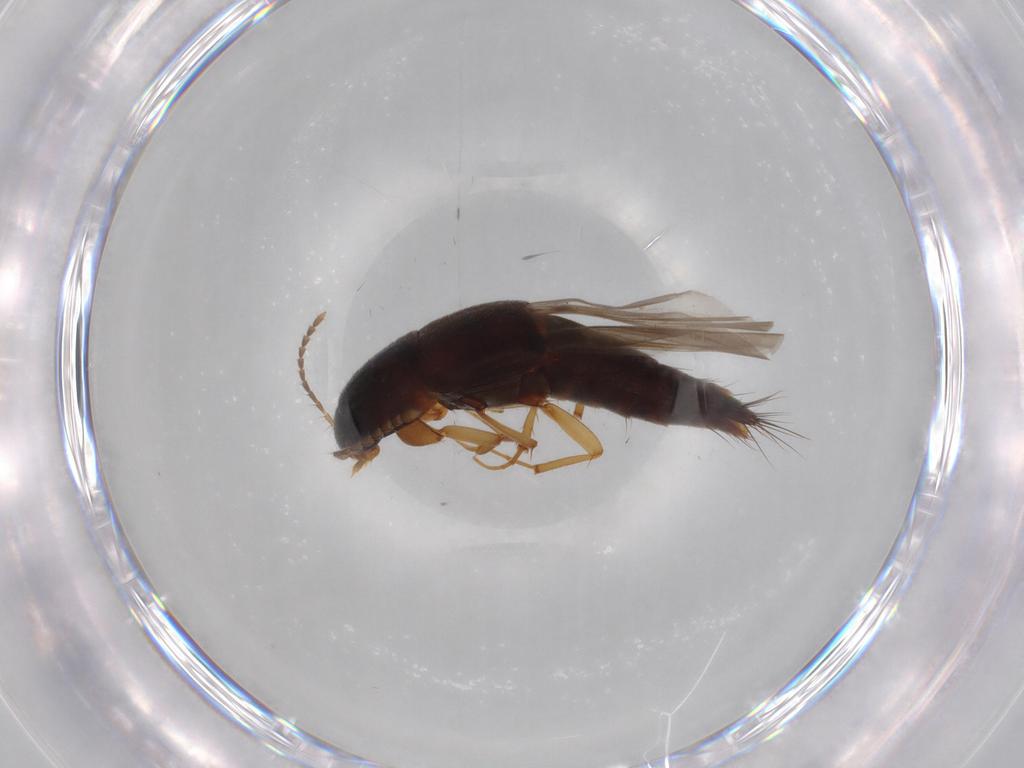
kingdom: Animalia
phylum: Arthropoda
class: Insecta
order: Coleoptera
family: Staphylinidae
